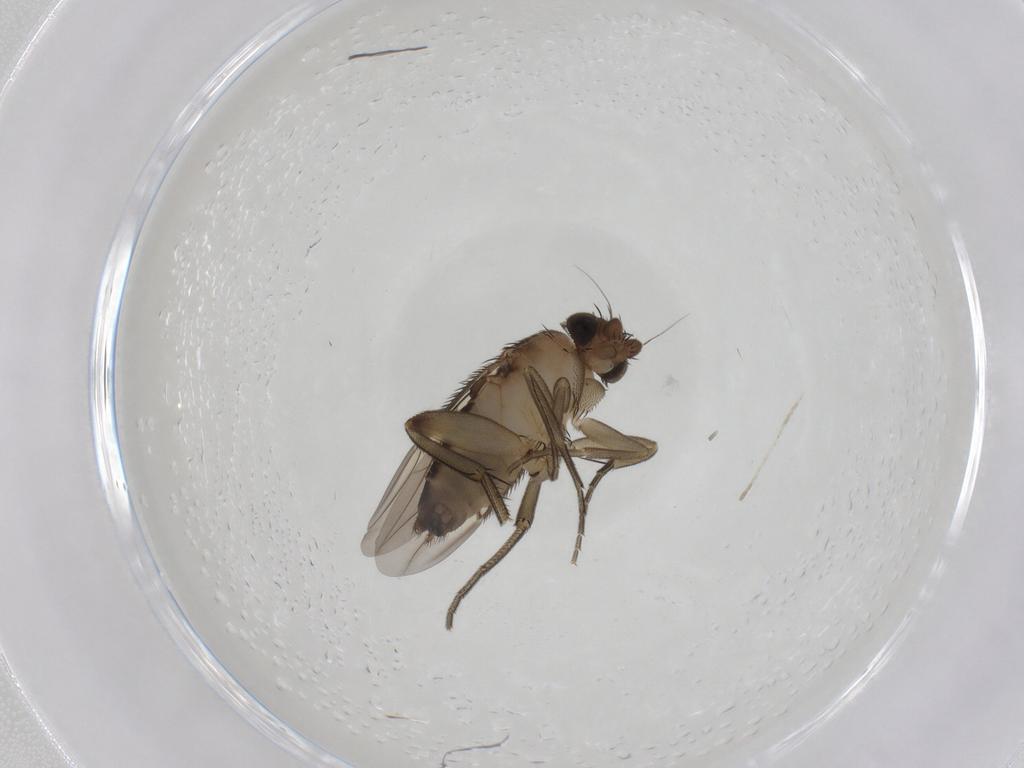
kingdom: Animalia
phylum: Arthropoda
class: Insecta
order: Diptera
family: Phoridae
